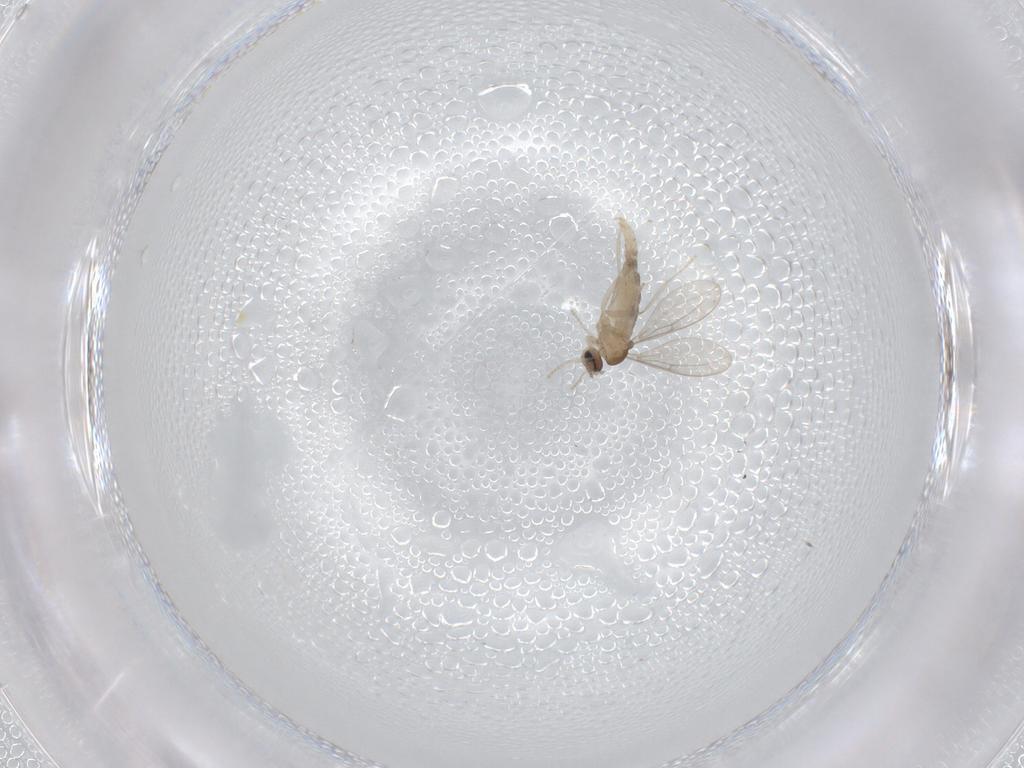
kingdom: Animalia
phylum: Arthropoda
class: Insecta
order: Diptera
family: Cecidomyiidae
